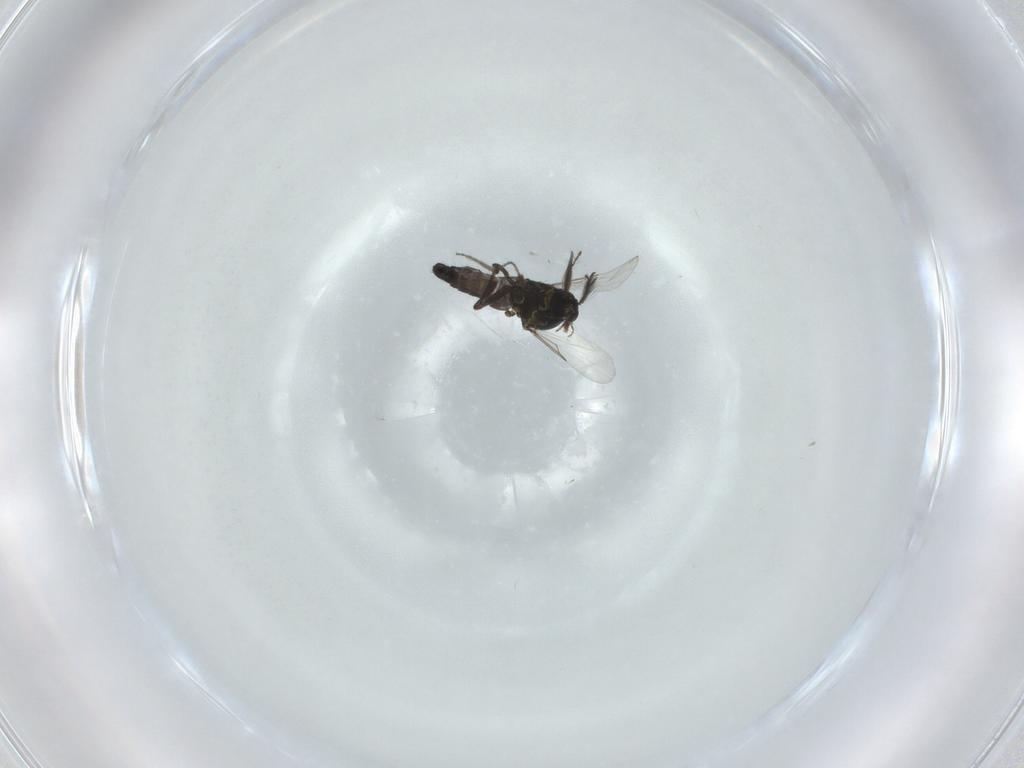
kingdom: Animalia
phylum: Arthropoda
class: Insecta
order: Diptera
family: Ceratopogonidae
